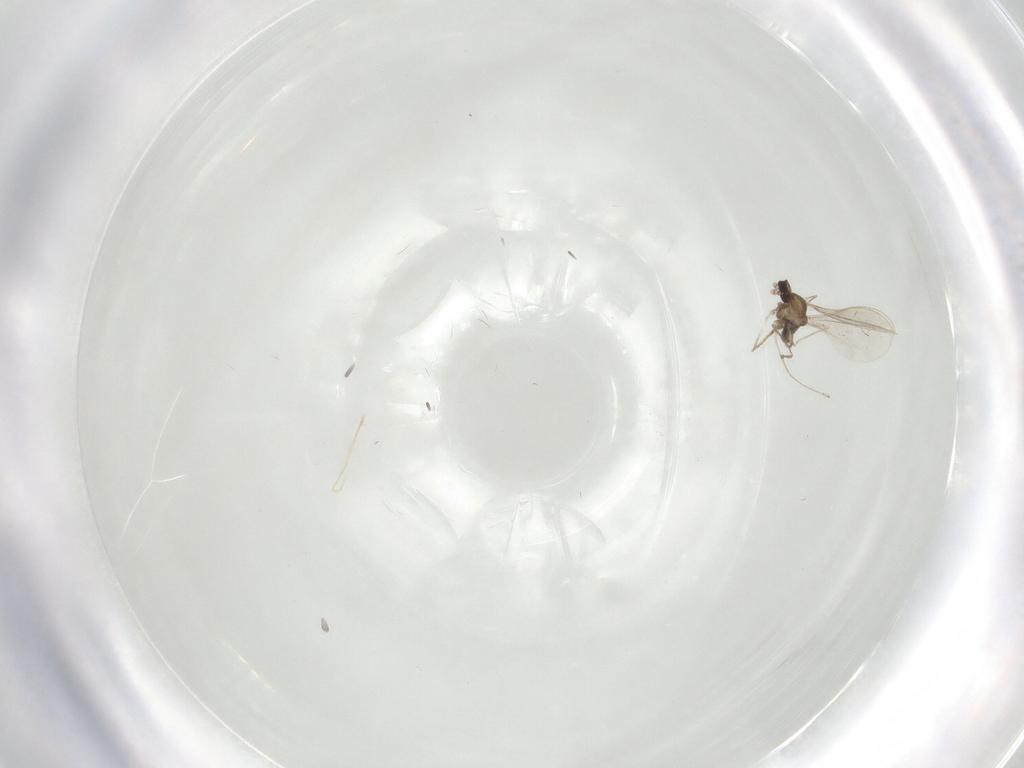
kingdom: Animalia
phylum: Arthropoda
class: Insecta
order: Diptera
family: Cecidomyiidae
